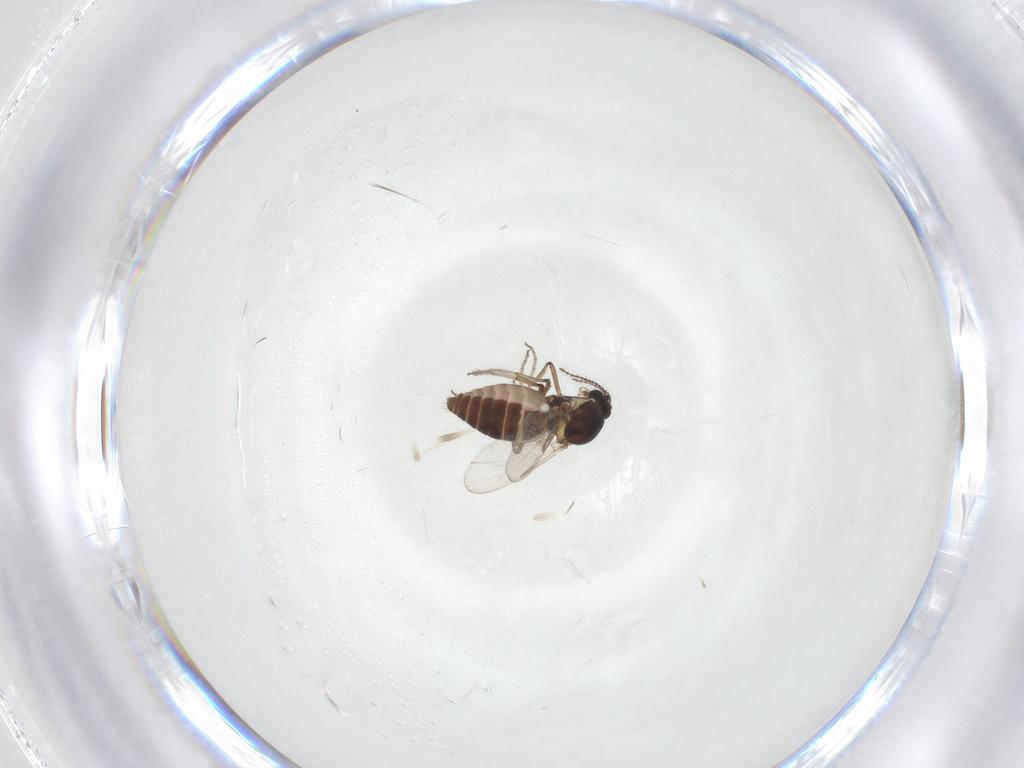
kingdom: Animalia
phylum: Arthropoda
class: Insecta
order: Diptera
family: Ceratopogonidae
